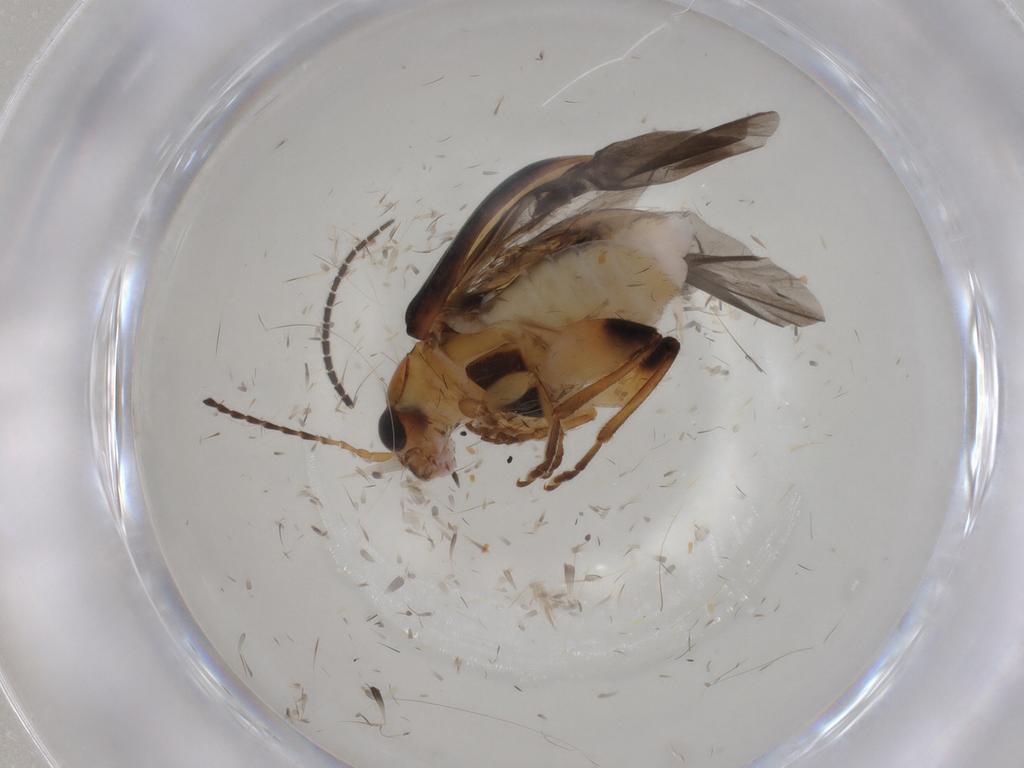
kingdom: Animalia
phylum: Arthropoda
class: Insecta
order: Coleoptera
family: Chrysomelidae
